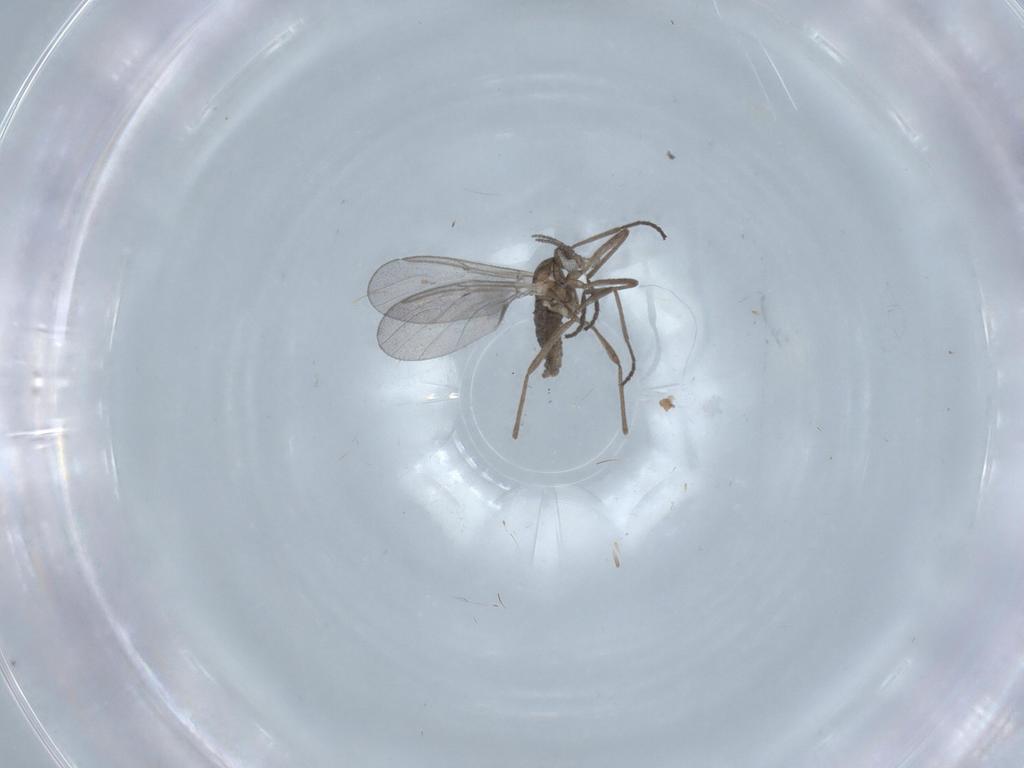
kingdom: Animalia
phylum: Arthropoda
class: Insecta
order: Diptera
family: Cecidomyiidae
